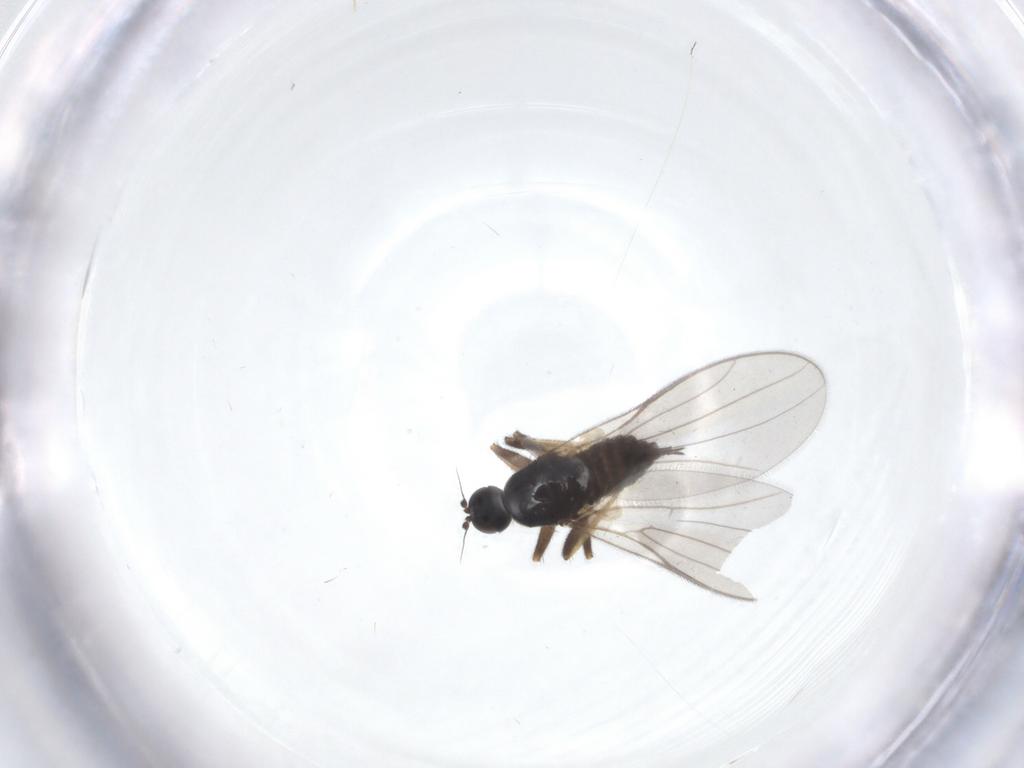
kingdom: Animalia
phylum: Arthropoda
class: Insecta
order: Diptera
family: Hybotidae
